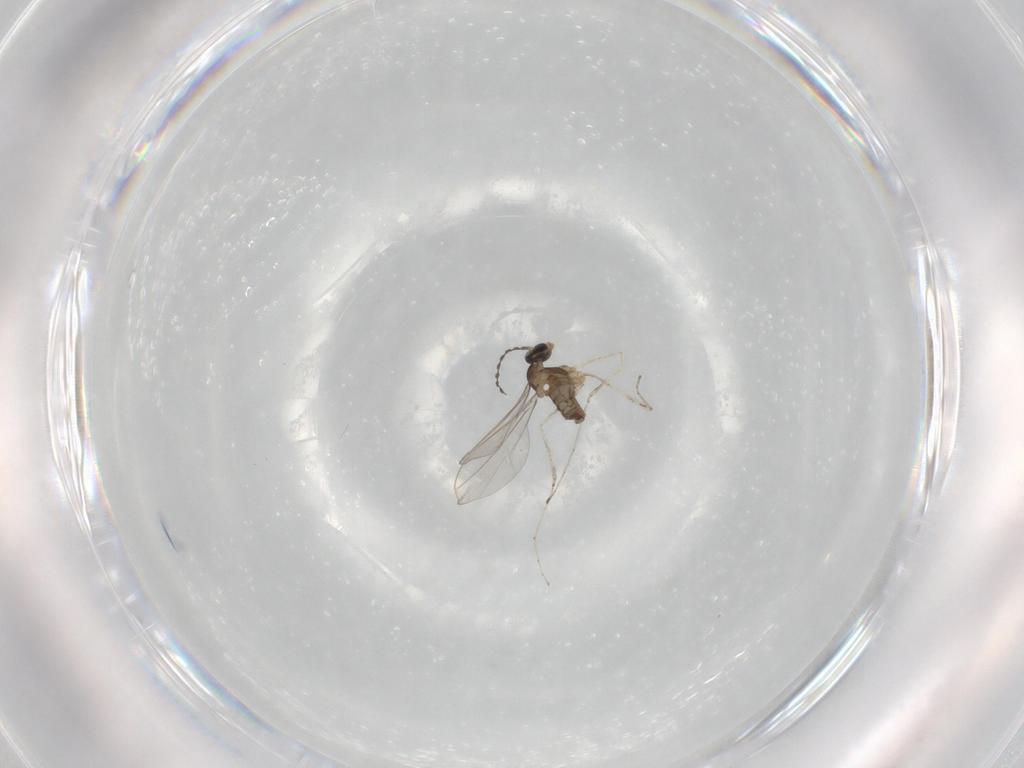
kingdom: Animalia
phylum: Arthropoda
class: Insecta
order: Diptera
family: Cecidomyiidae
